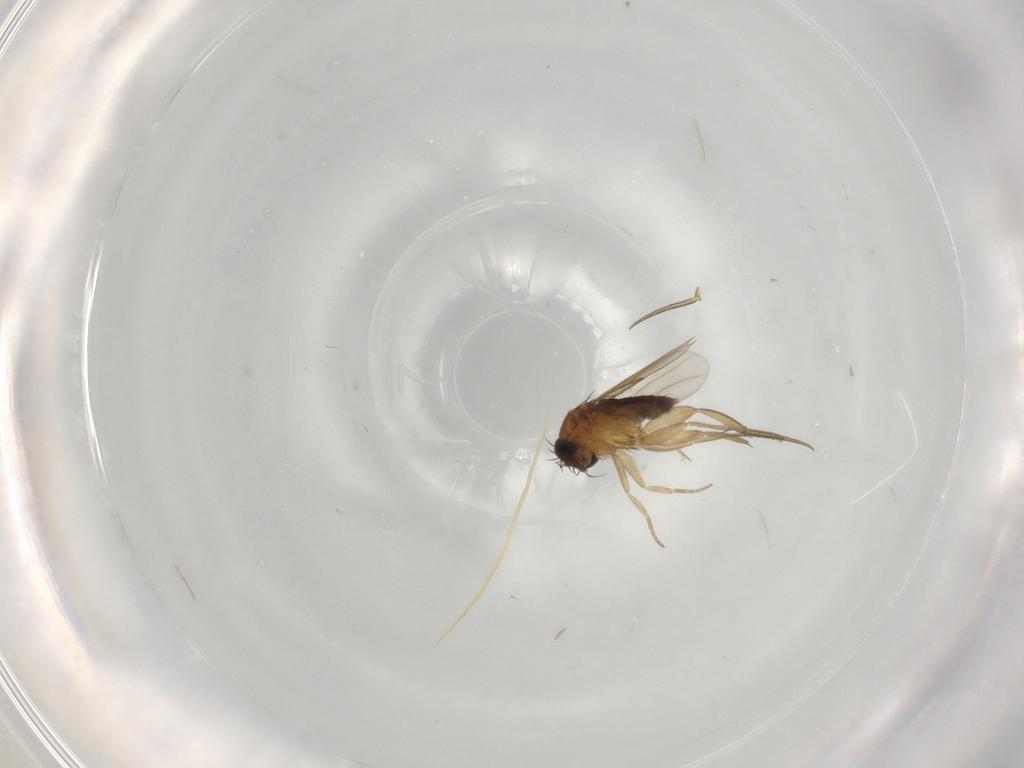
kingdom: Animalia
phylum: Arthropoda
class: Insecta
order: Diptera
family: Phoridae
